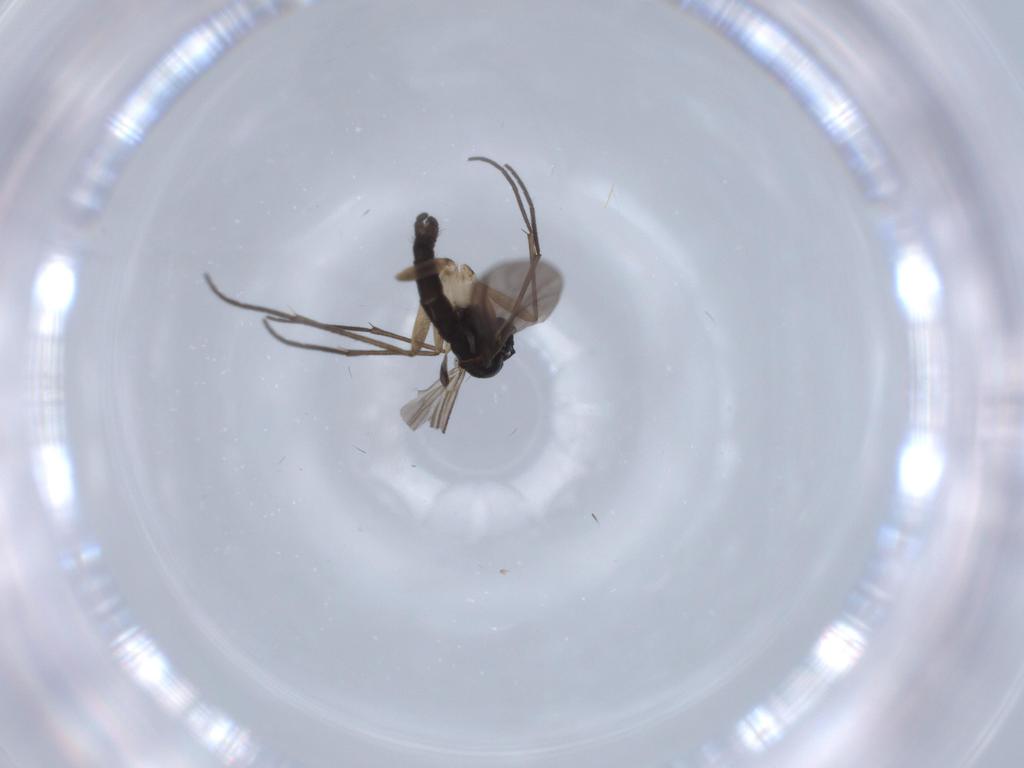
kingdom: Animalia
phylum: Arthropoda
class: Insecta
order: Diptera
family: Sciaridae
